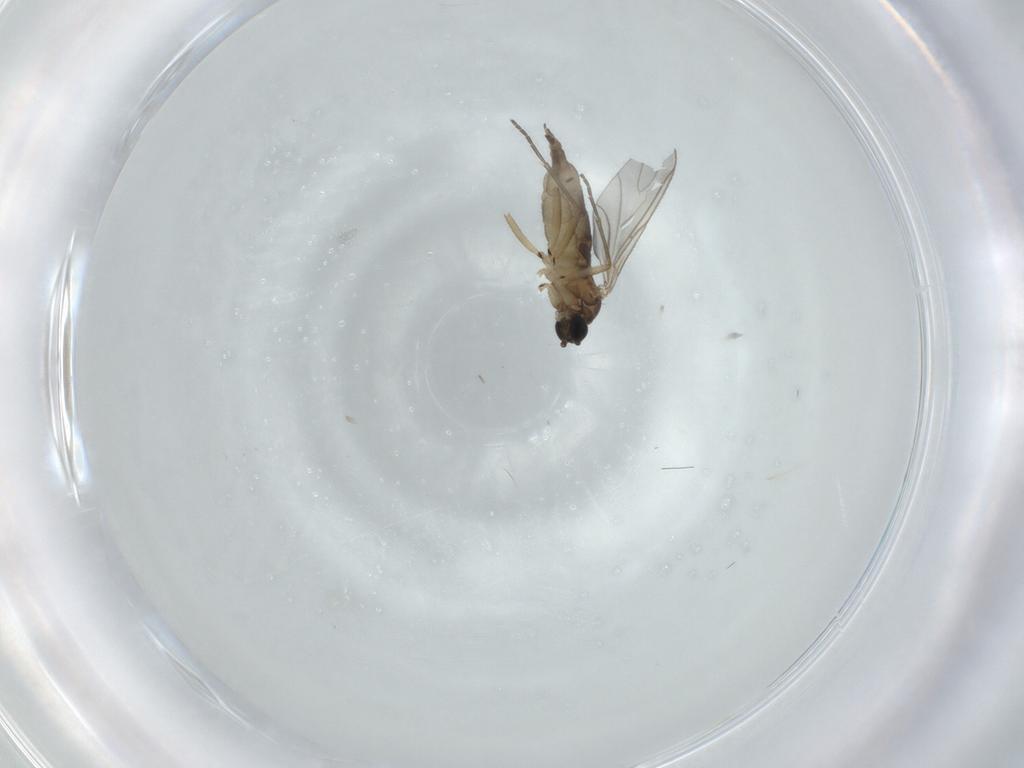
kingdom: Animalia
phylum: Arthropoda
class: Insecta
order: Diptera
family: Sciaridae
